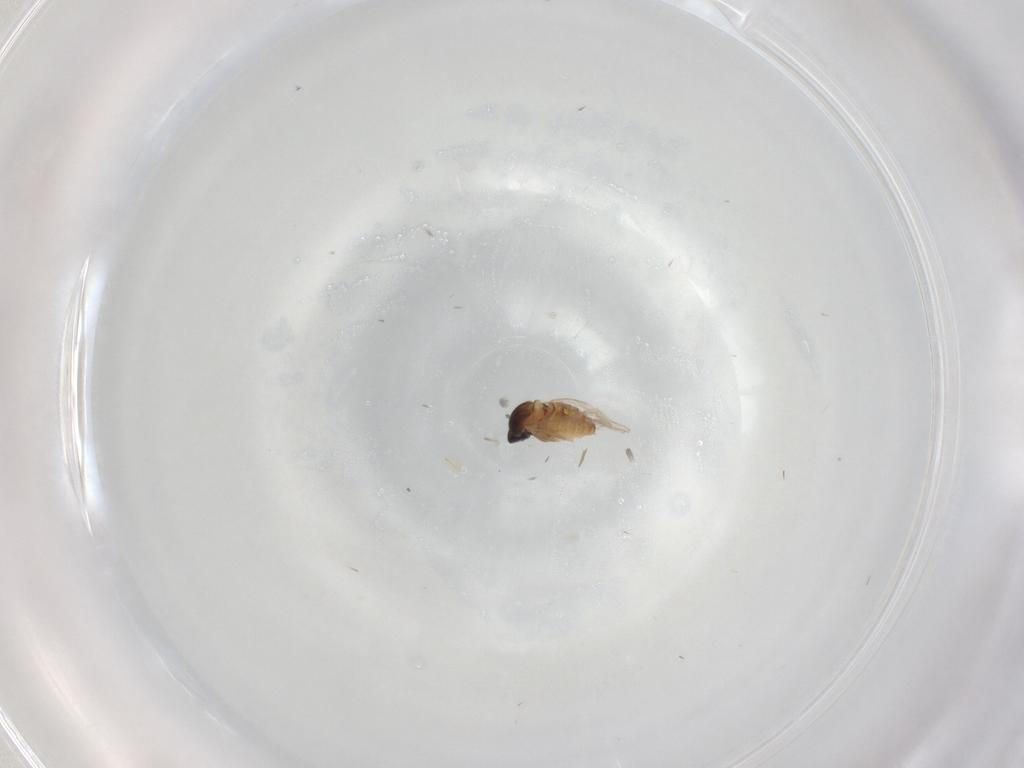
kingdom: Animalia
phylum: Arthropoda
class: Insecta
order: Diptera
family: Cecidomyiidae
